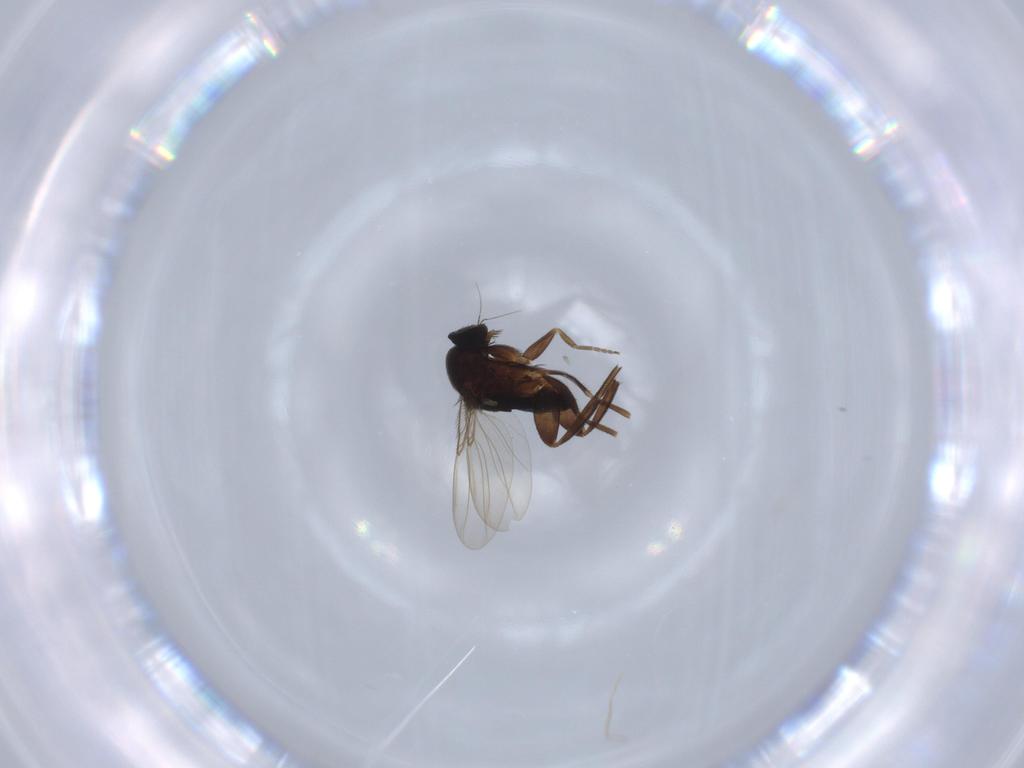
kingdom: Animalia
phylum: Arthropoda
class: Insecta
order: Diptera
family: Phoridae
